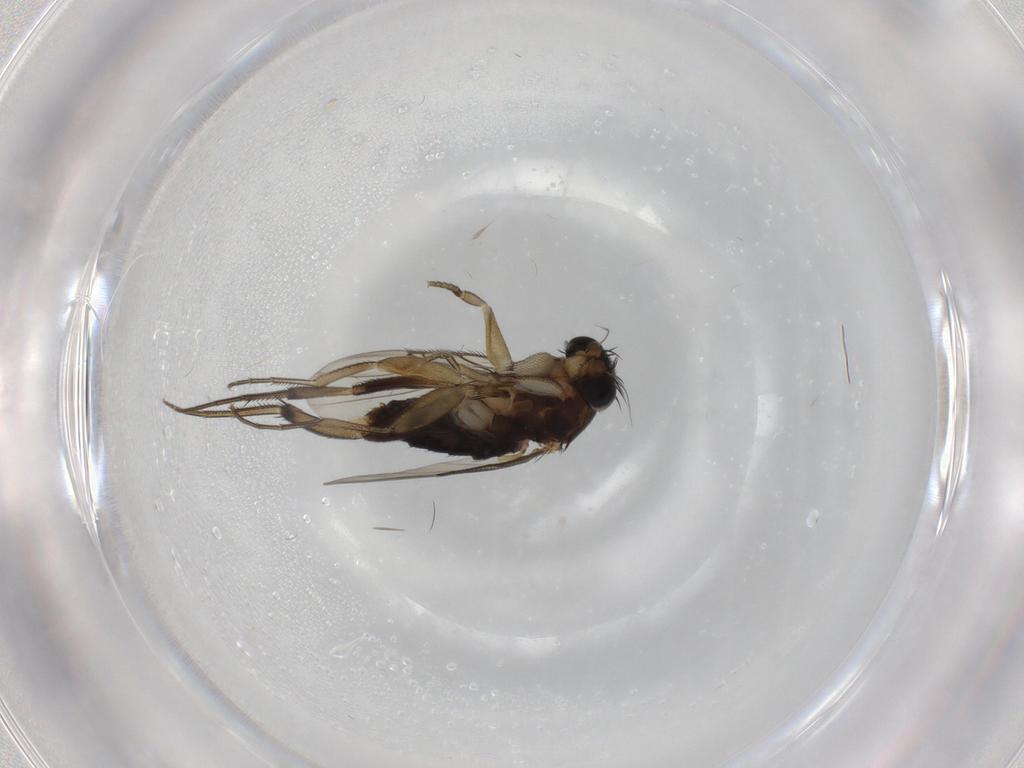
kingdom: Animalia
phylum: Arthropoda
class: Insecta
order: Diptera
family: Phoridae
